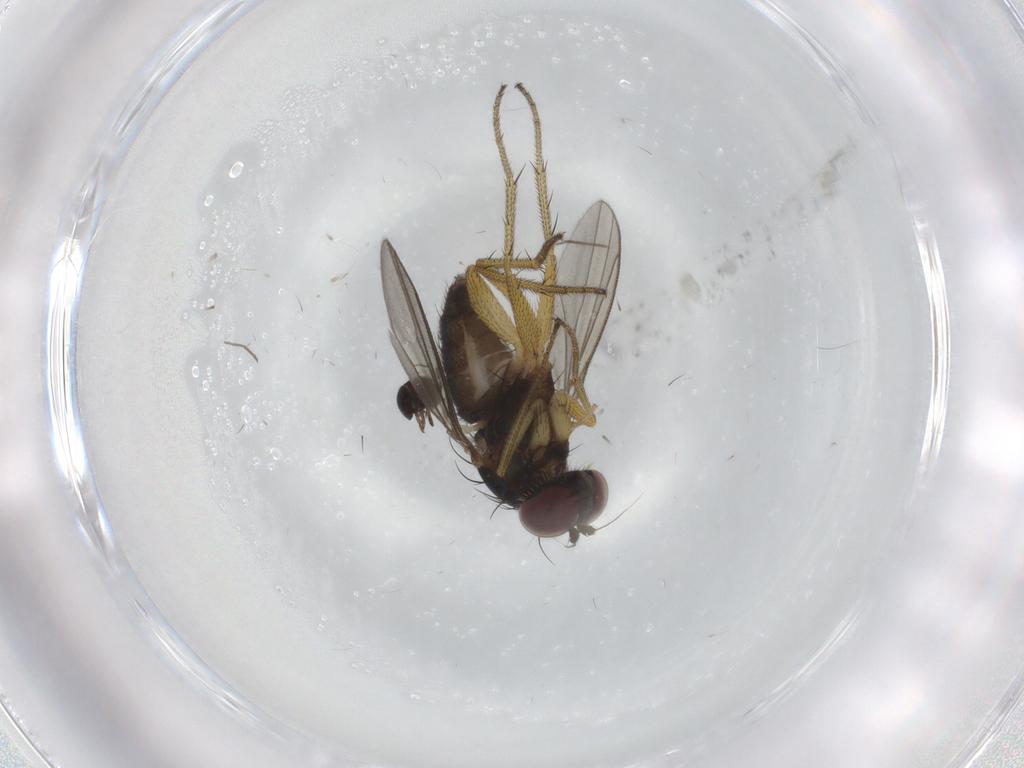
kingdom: Animalia
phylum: Arthropoda
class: Insecta
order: Diptera
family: Dolichopodidae
